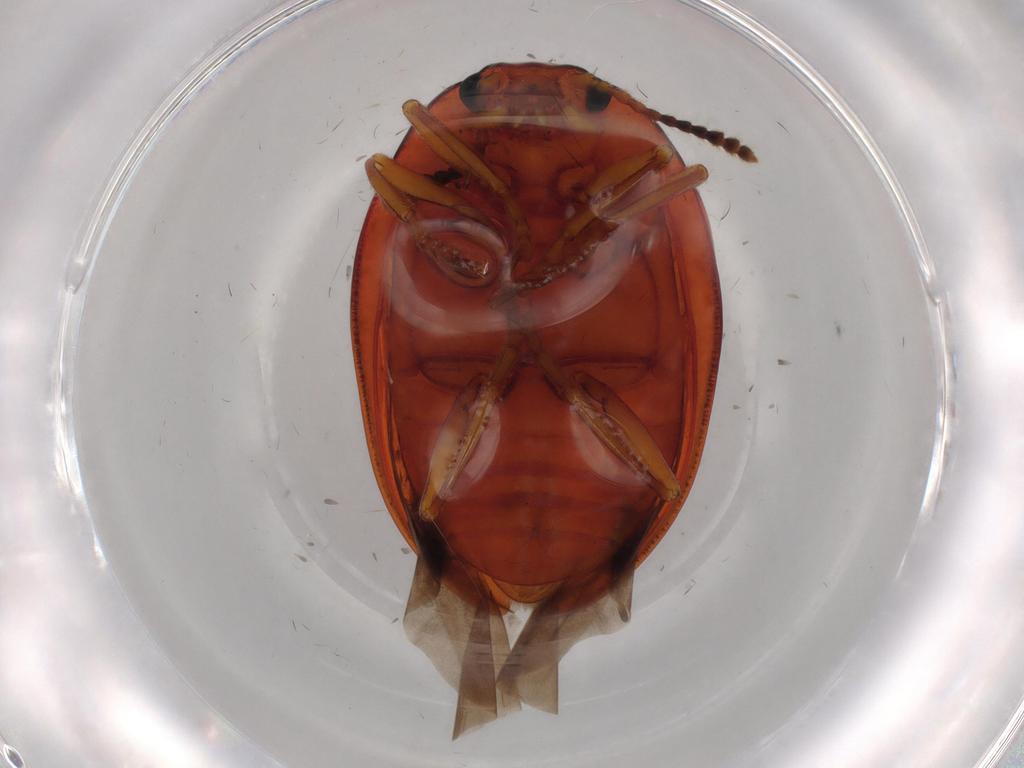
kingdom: Animalia
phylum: Arthropoda
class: Insecta
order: Coleoptera
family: Erotylidae
